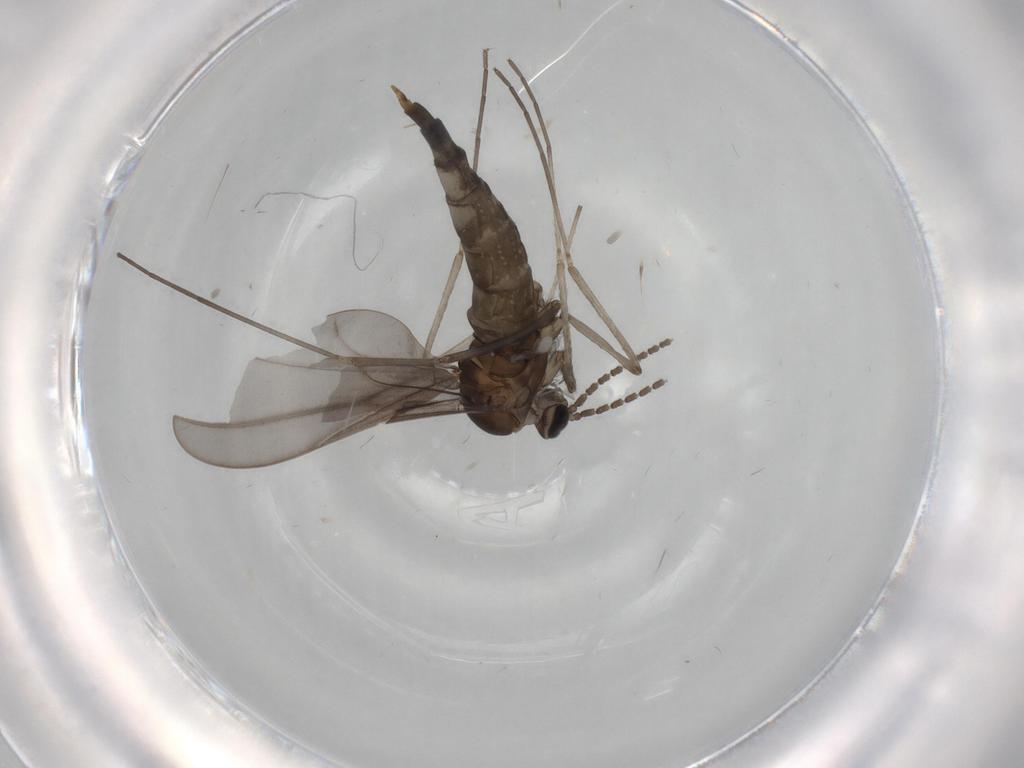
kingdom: Animalia
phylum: Arthropoda
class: Insecta
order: Diptera
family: Cecidomyiidae
